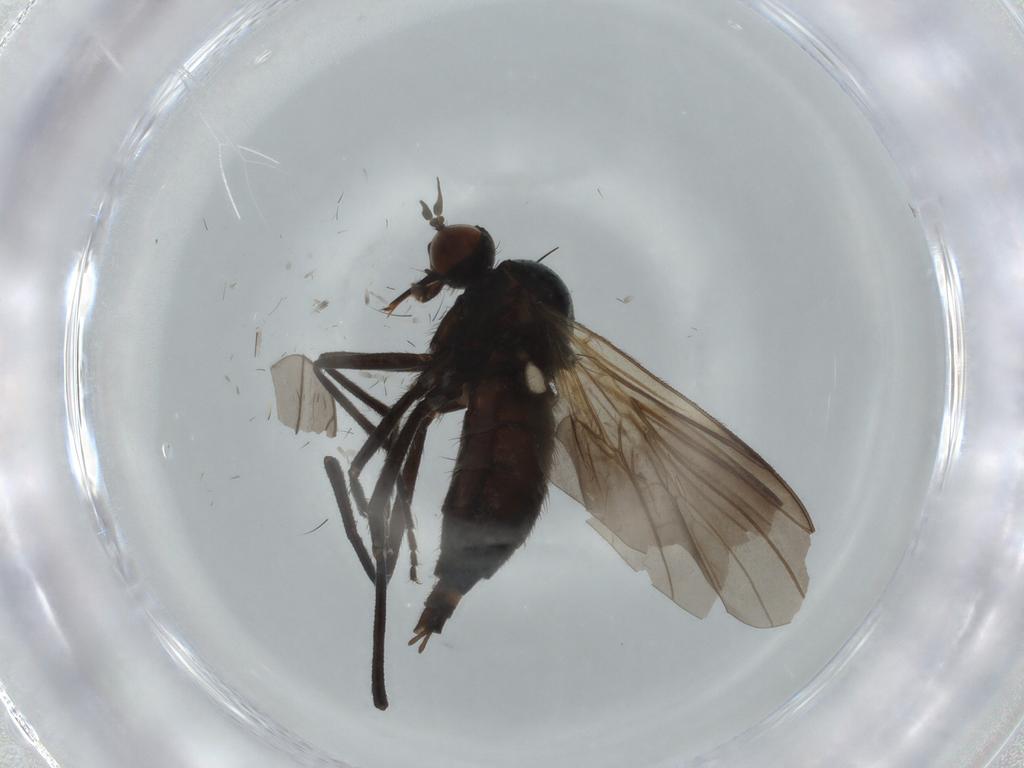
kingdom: Animalia
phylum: Arthropoda
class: Insecta
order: Diptera
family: Empididae
